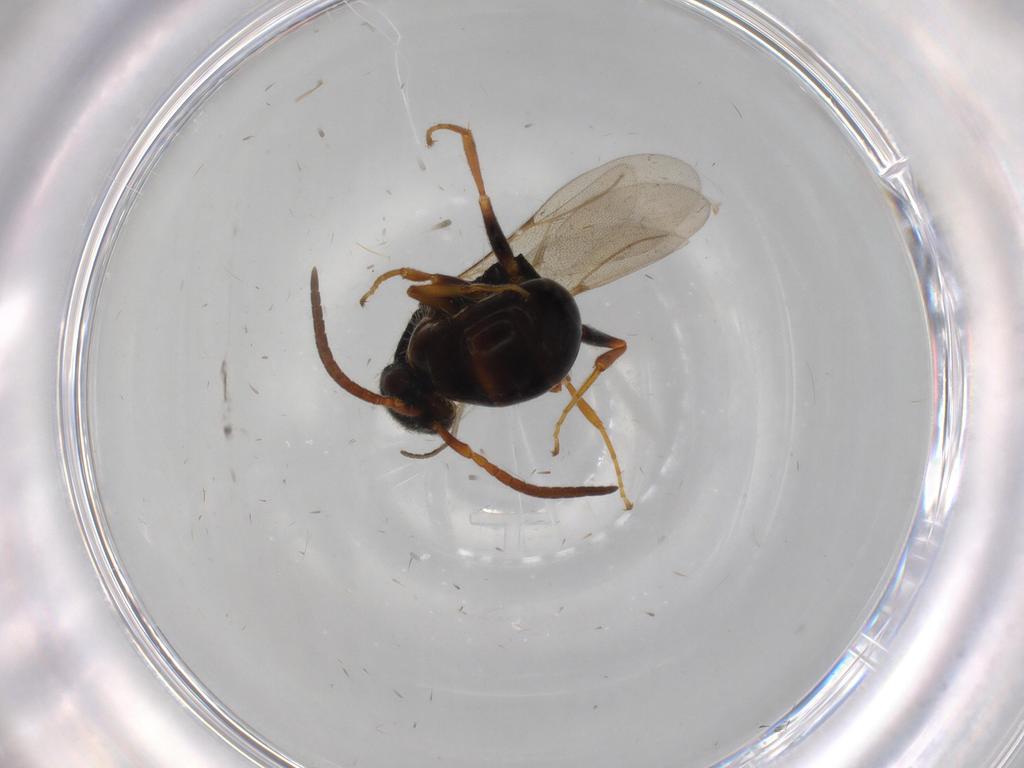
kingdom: Animalia
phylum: Arthropoda
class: Insecta
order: Hymenoptera
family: Bethylidae
